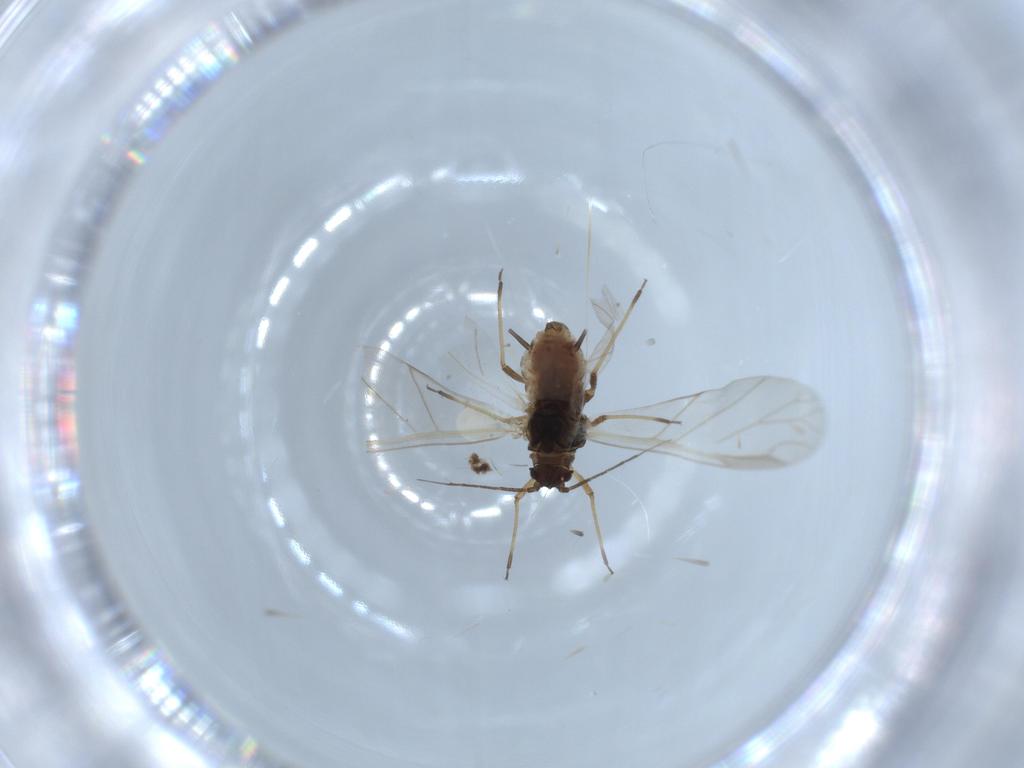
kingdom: Animalia
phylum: Arthropoda
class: Insecta
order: Hemiptera
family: Aphididae
